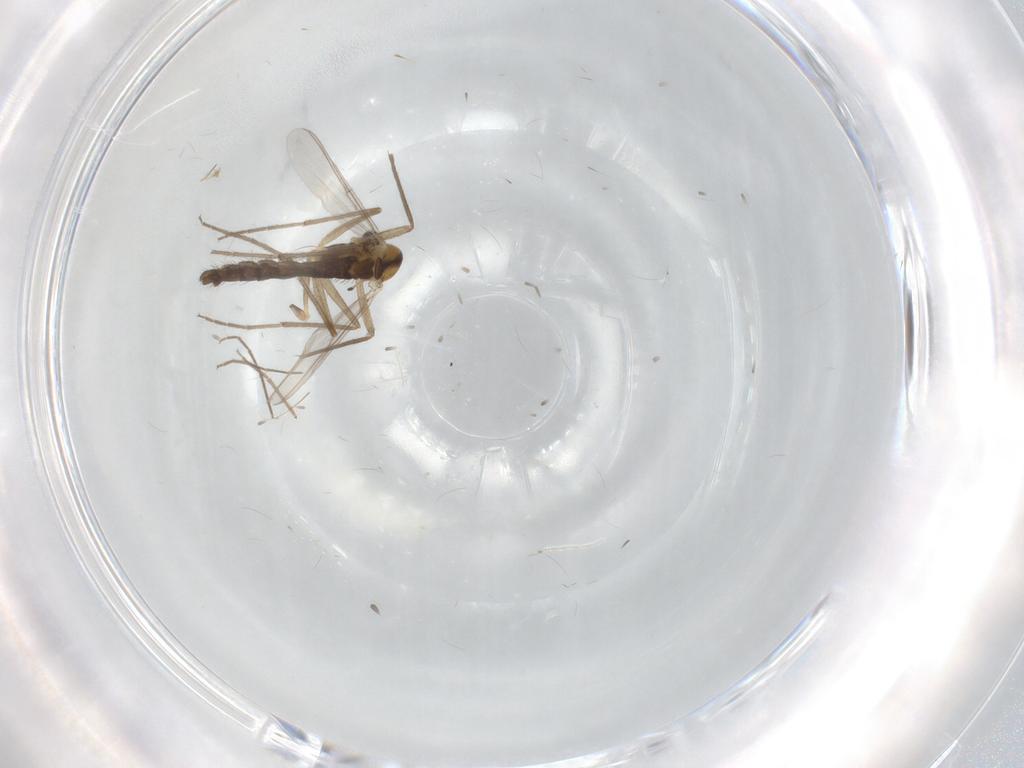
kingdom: Animalia
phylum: Arthropoda
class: Insecta
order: Diptera
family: Chironomidae
